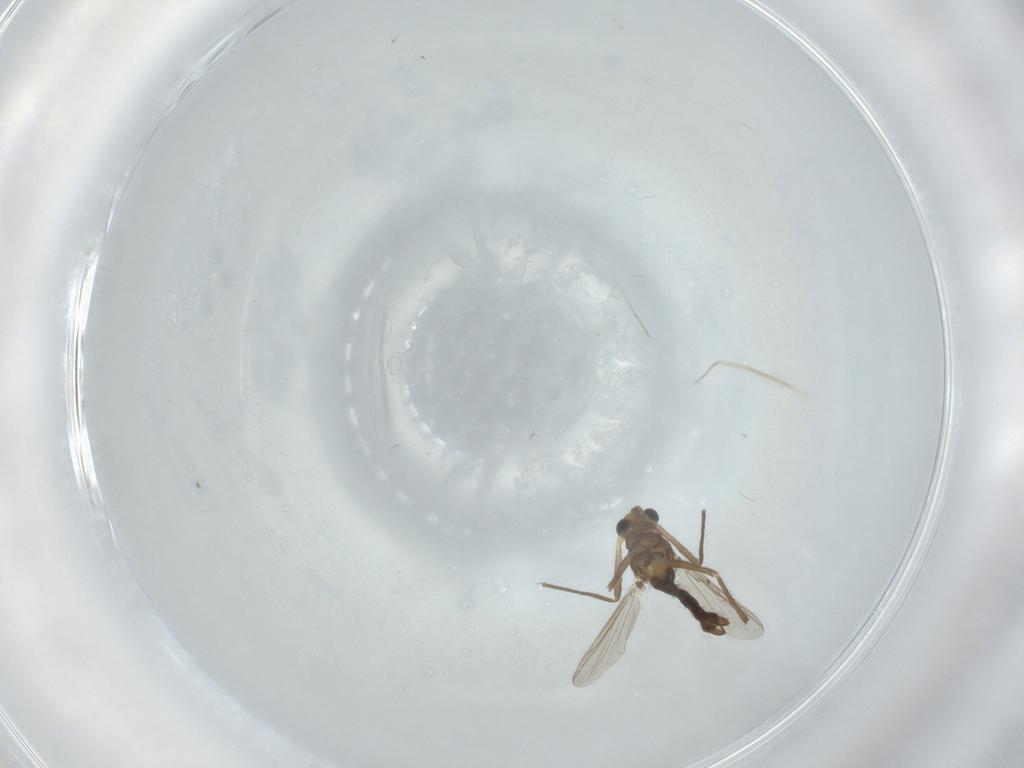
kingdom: Animalia
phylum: Arthropoda
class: Insecta
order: Diptera
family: Chironomidae
